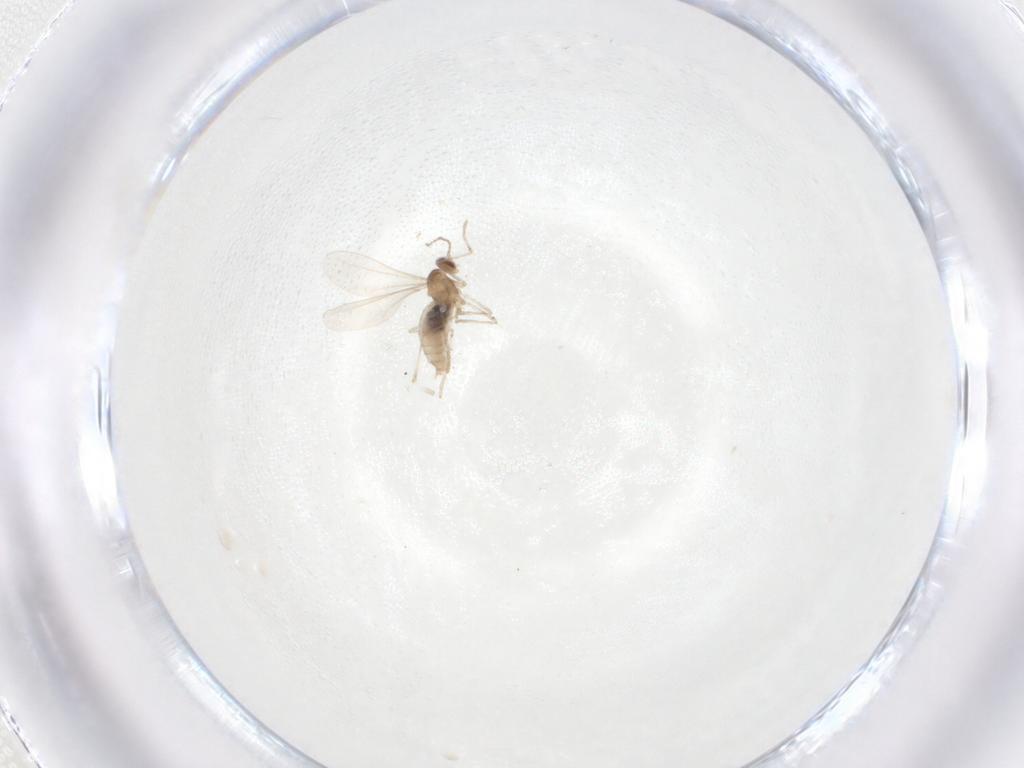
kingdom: Animalia
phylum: Arthropoda
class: Insecta
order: Diptera
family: Cecidomyiidae
